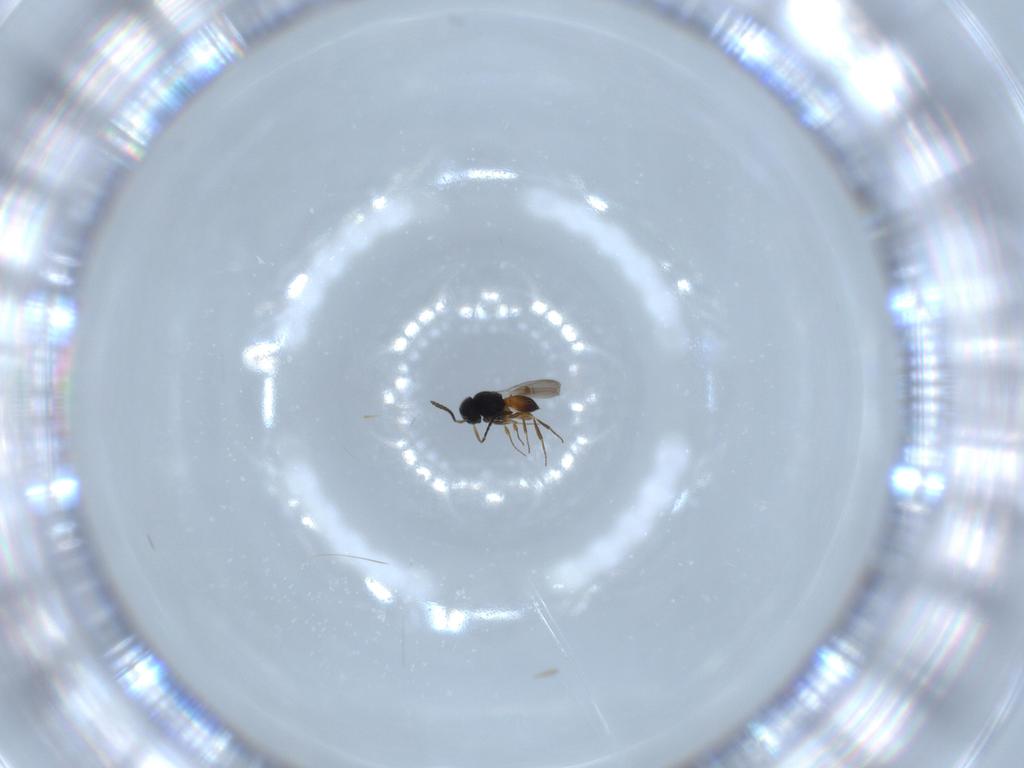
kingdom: Animalia
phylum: Arthropoda
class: Insecta
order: Hymenoptera
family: Scelionidae
